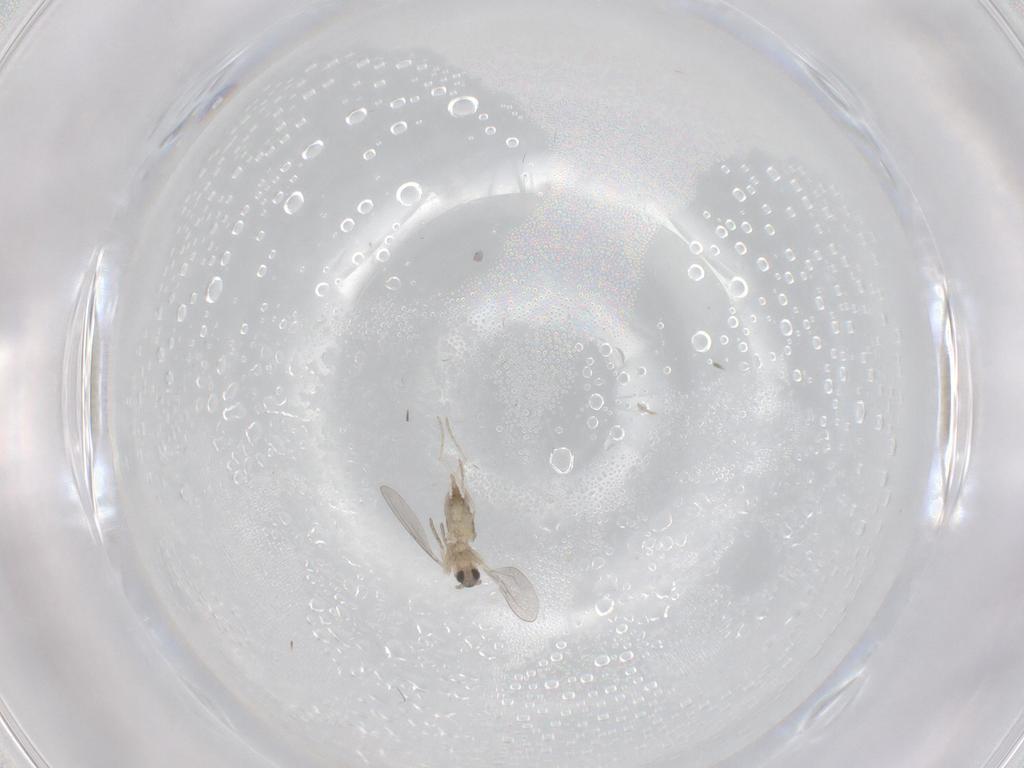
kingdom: Animalia
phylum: Arthropoda
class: Insecta
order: Diptera
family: Cecidomyiidae
